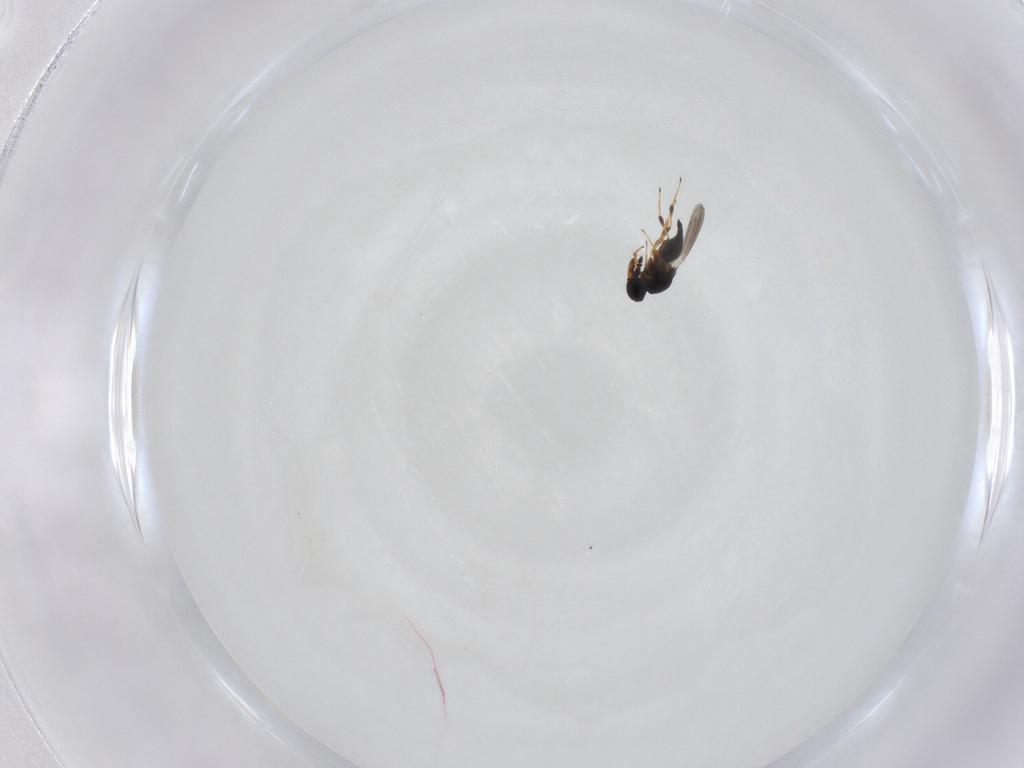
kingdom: Animalia
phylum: Arthropoda
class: Insecta
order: Hymenoptera
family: Platygastridae
